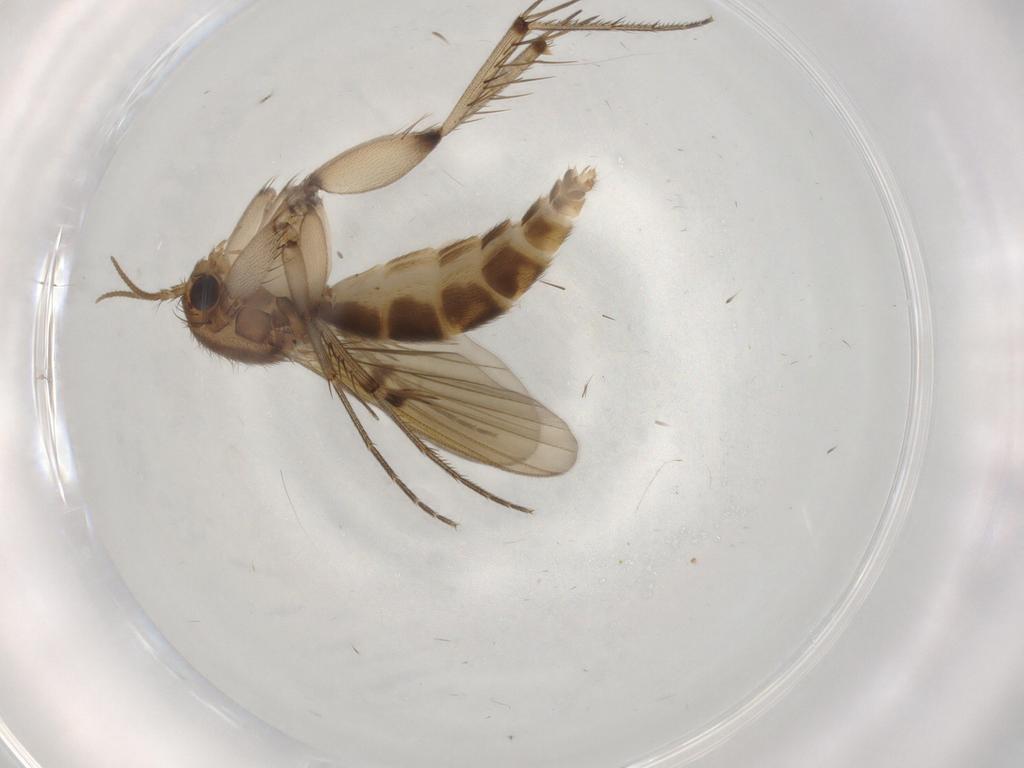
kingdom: Animalia
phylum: Arthropoda
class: Insecta
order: Diptera
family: Mycetophilidae
